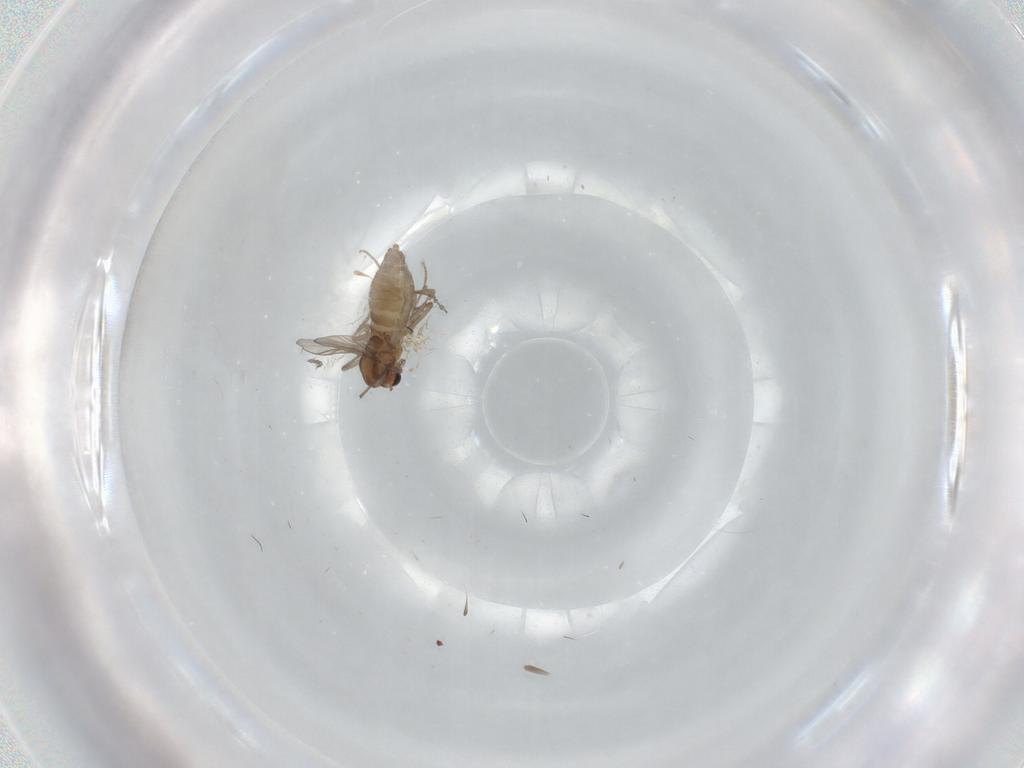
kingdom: Animalia
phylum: Arthropoda
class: Insecta
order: Diptera
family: Chironomidae
